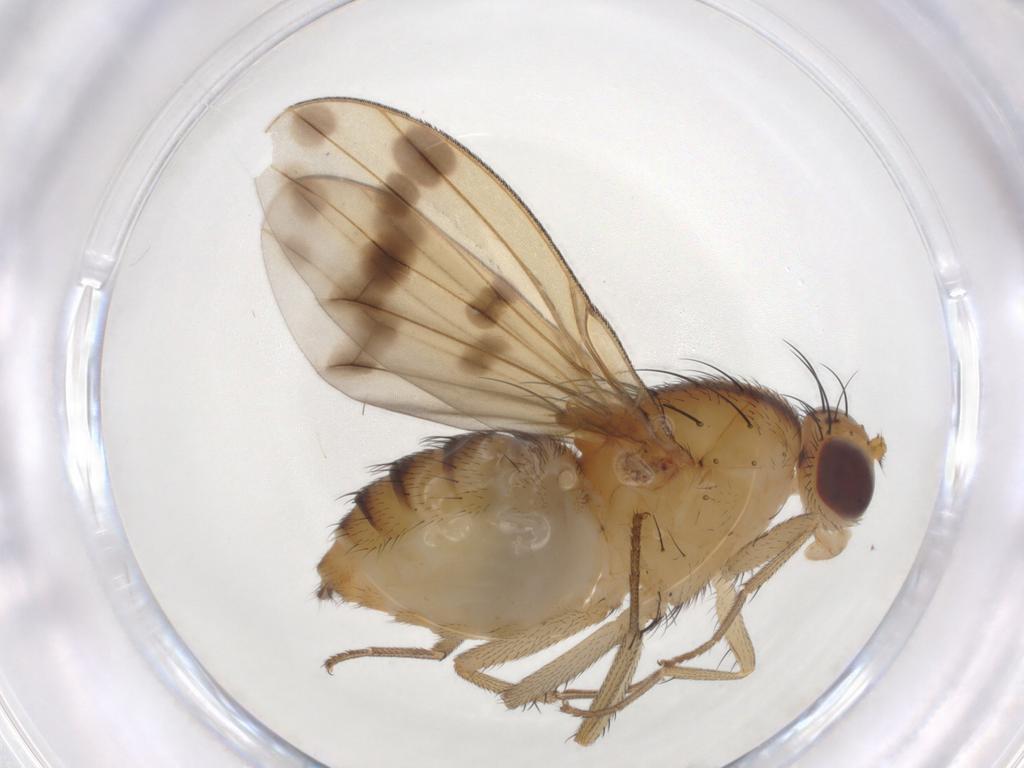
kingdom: Animalia
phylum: Arthropoda
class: Insecta
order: Diptera
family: Lauxaniidae
